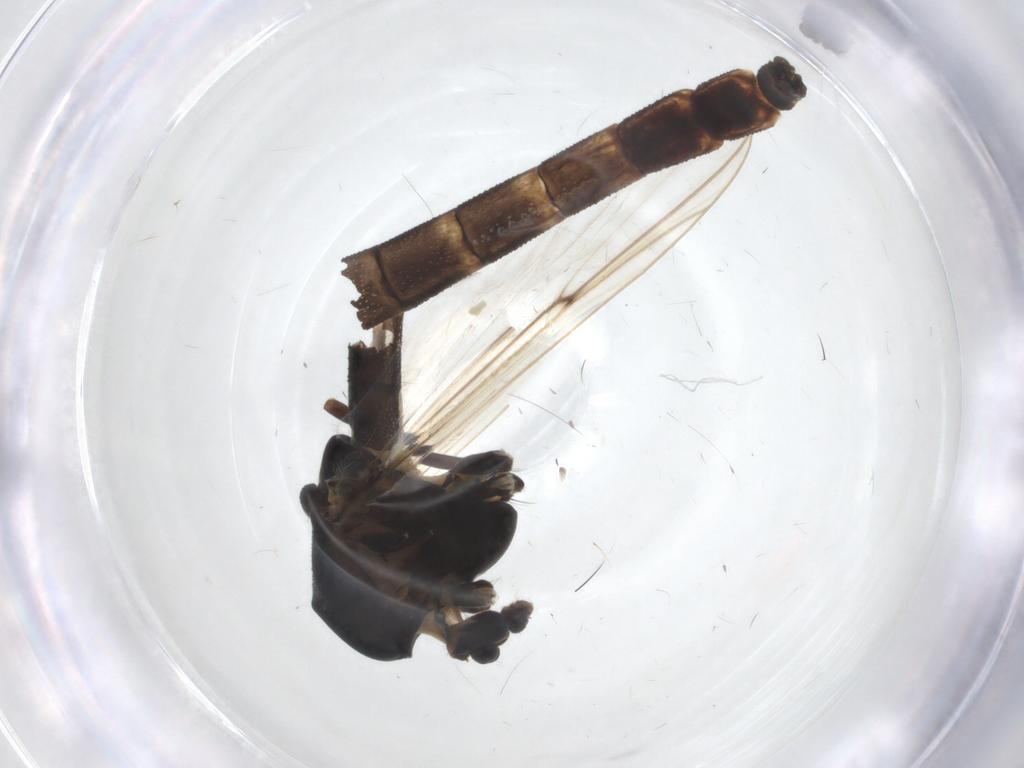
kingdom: Animalia
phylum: Arthropoda
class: Insecta
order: Diptera
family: Chironomidae
